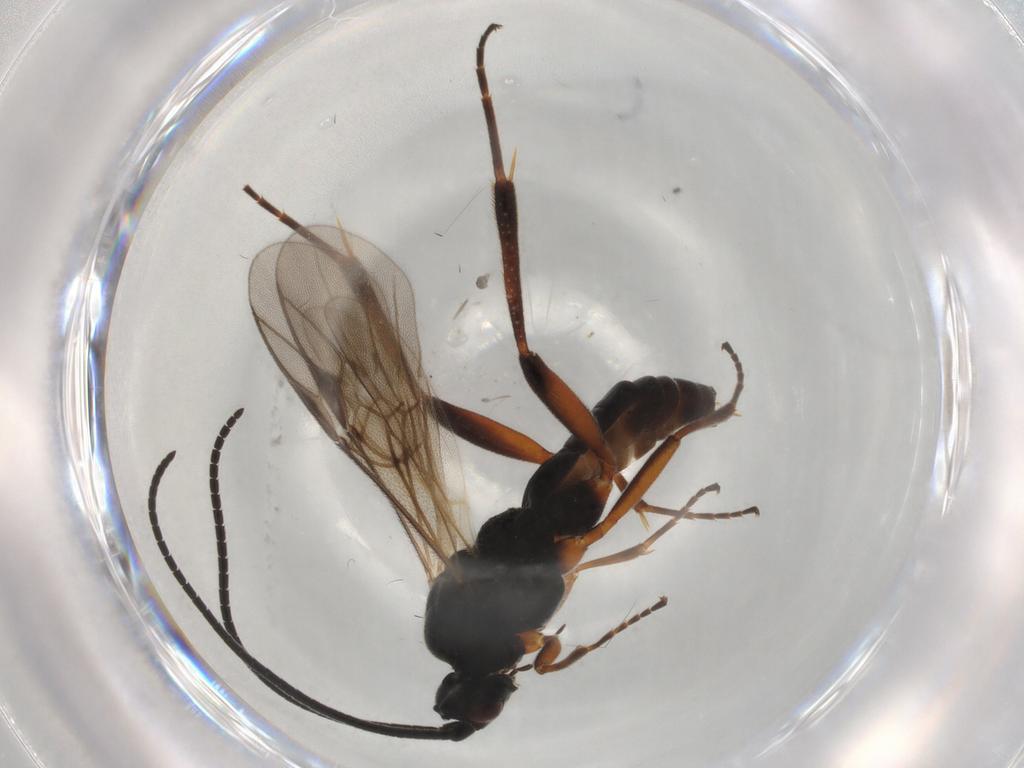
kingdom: Animalia
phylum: Arthropoda
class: Insecta
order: Hymenoptera
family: Braconidae
